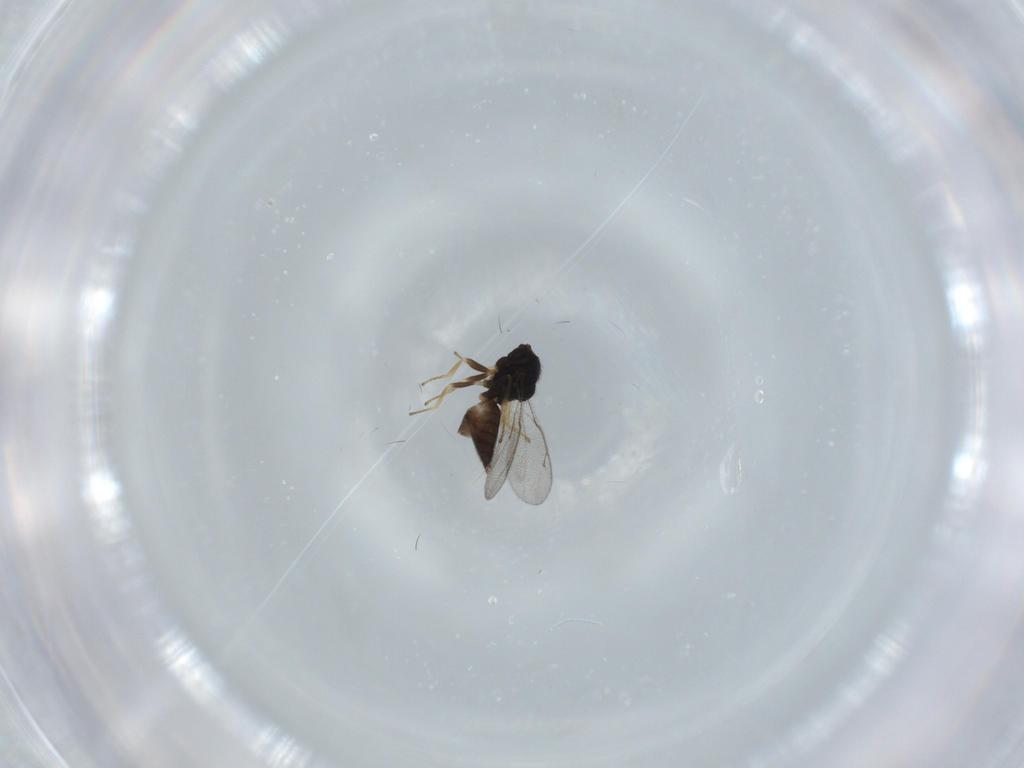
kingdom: Animalia
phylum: Arthropoda
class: Insecta
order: Hymenoptera
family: Pteromalidae
